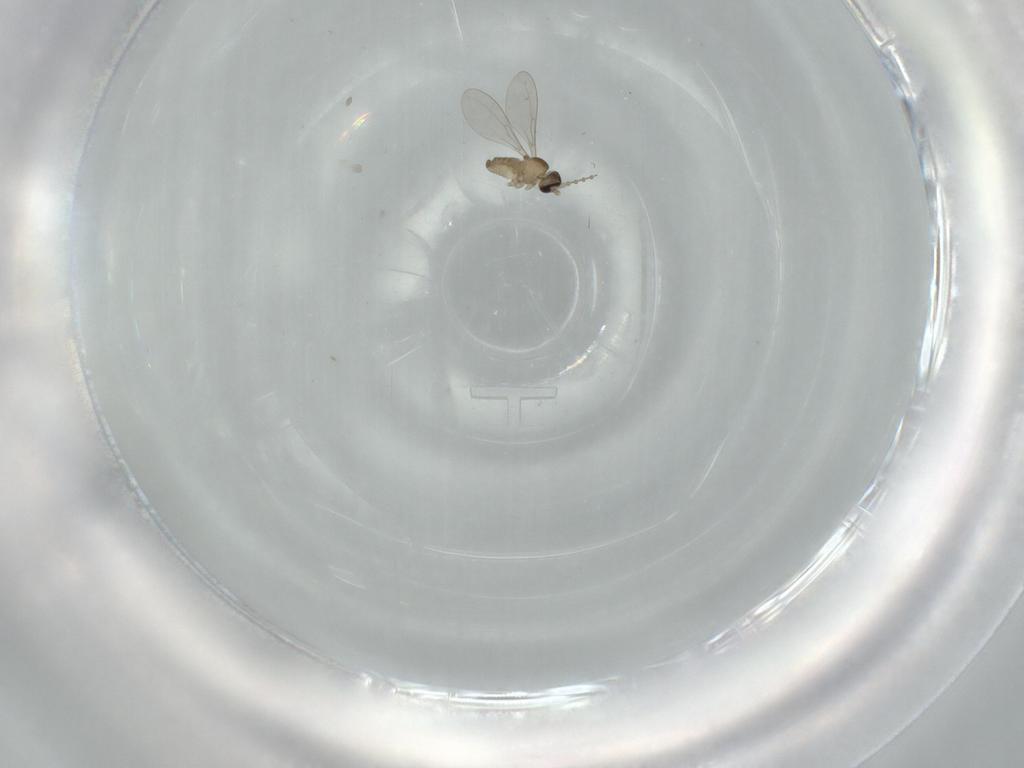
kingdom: Animalia
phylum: Arthropoda
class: Insecta
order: Diptera
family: Cecidomyiidae
